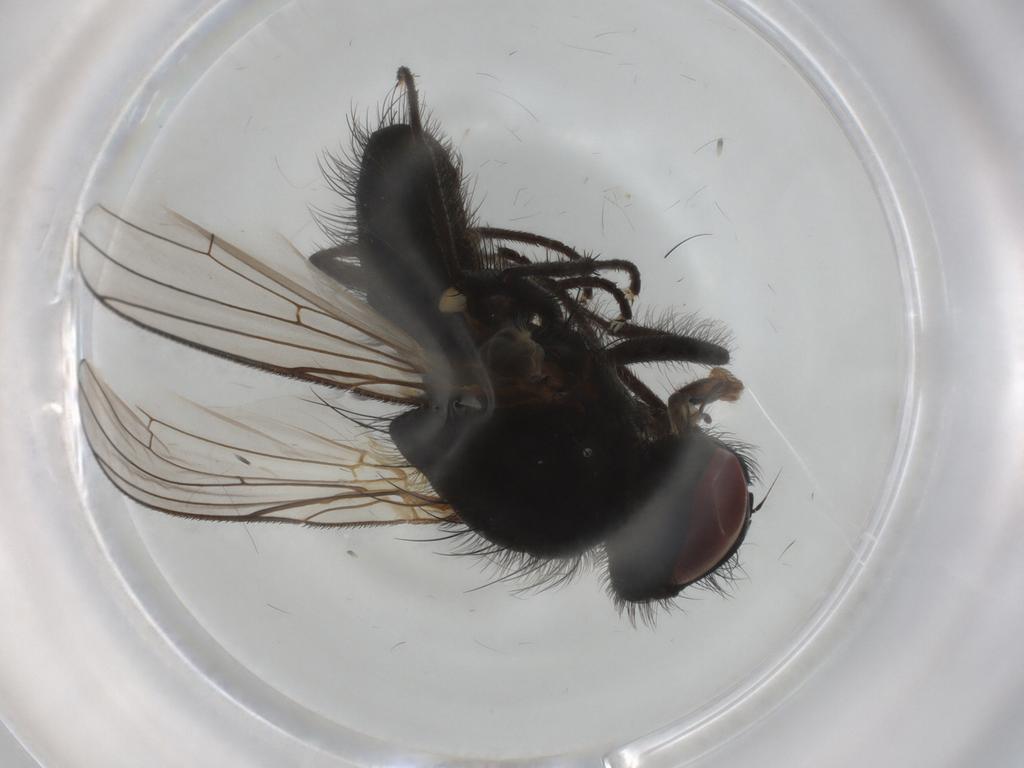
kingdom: Animalia
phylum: Arthropoda
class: Insecta
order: Diptera
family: Anthomyiidae
